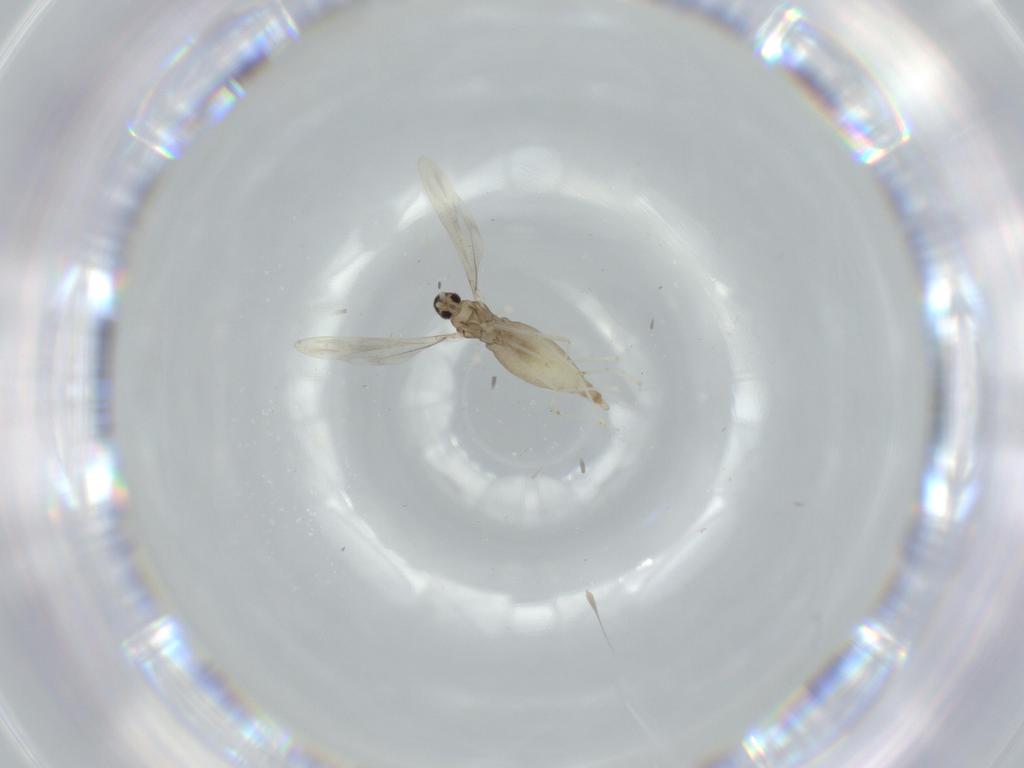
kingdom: Animalia
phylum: Arthropoda
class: Insecta
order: Diptera
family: Cecidomyiidae
